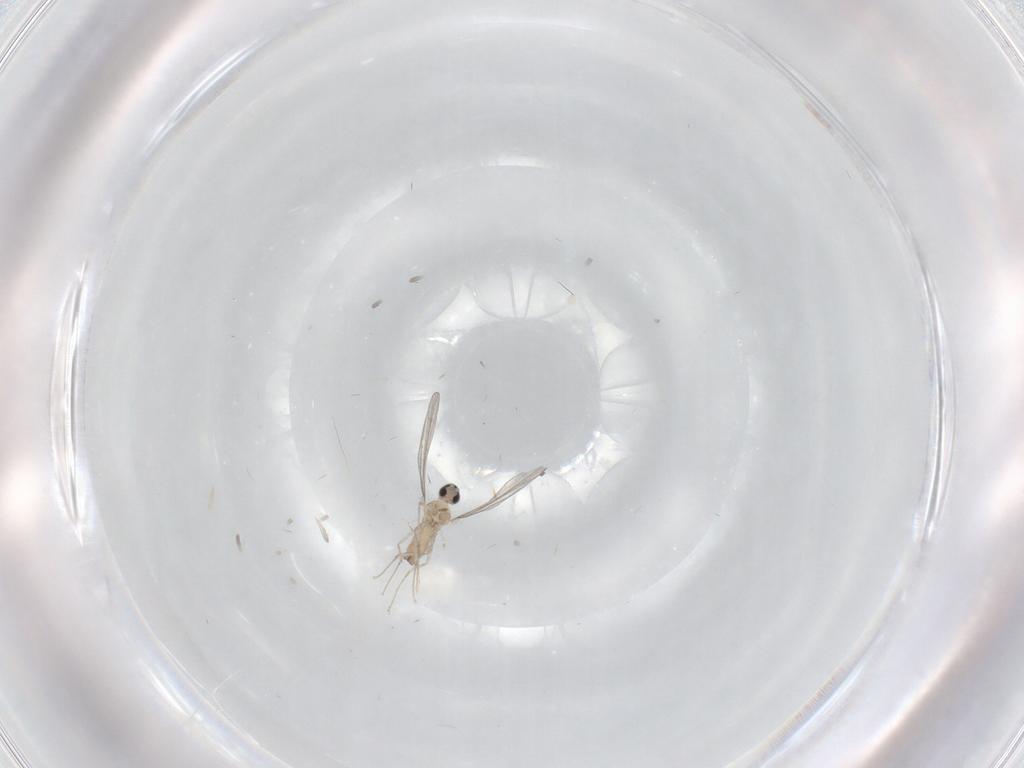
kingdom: Animalia
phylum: Arthropoda
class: Insecta
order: Diptera
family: Cecidomyiidae
